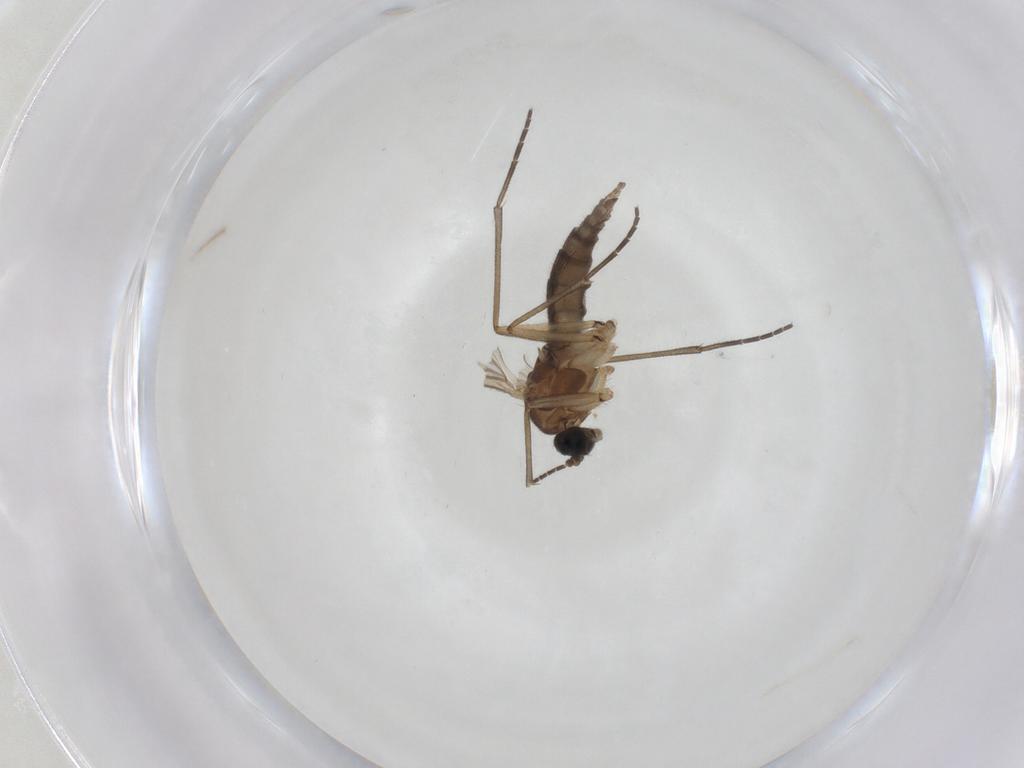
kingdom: Animalia
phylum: Arthropoda
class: Insecta
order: Diptera
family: Sciaridae
